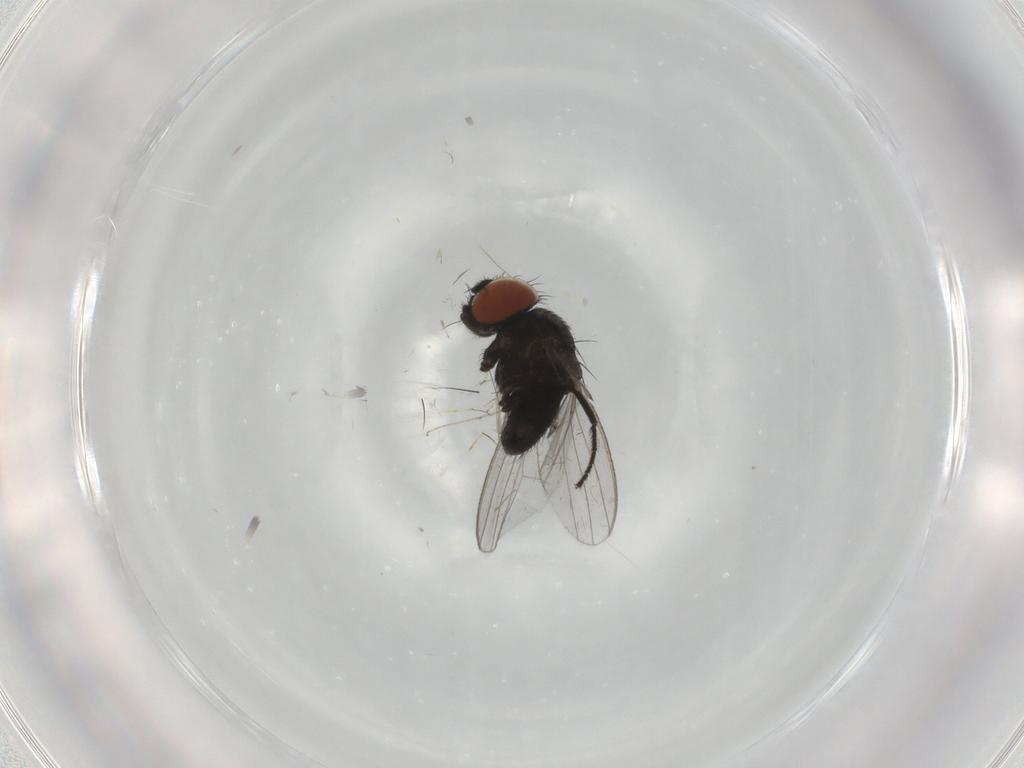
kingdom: Animalia
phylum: Arthropoda
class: Insecta
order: Diptera
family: Milichiidae
